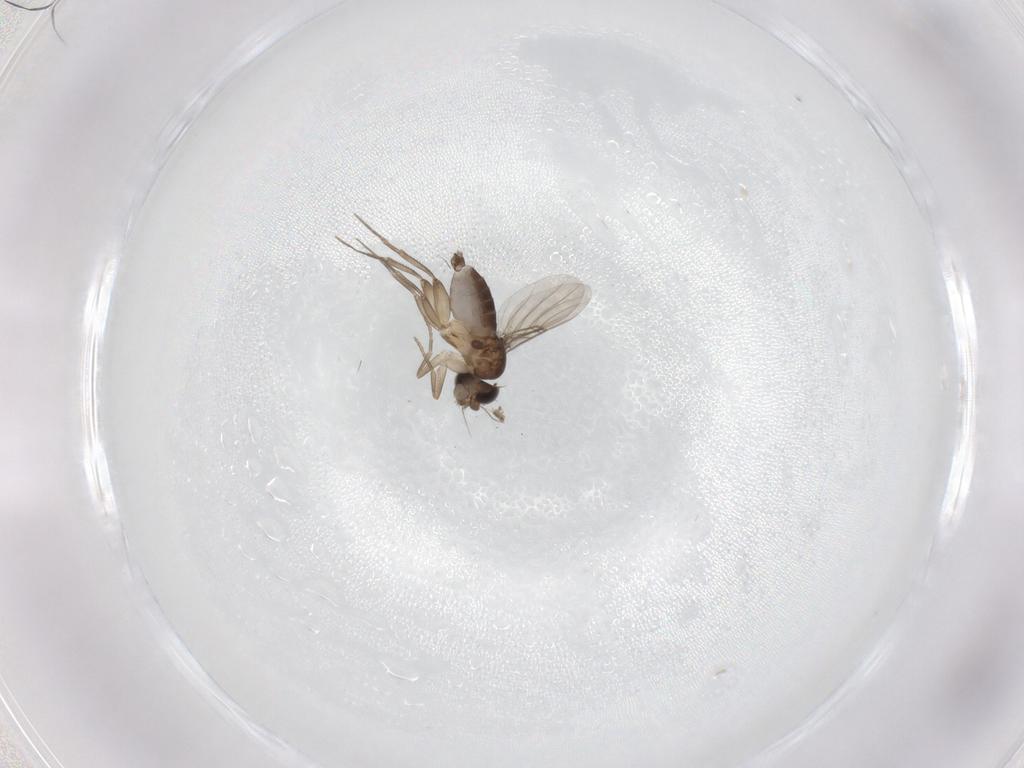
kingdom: Animalia
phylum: Arthropoda
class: Insecta
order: Diptera
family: Phoridae
